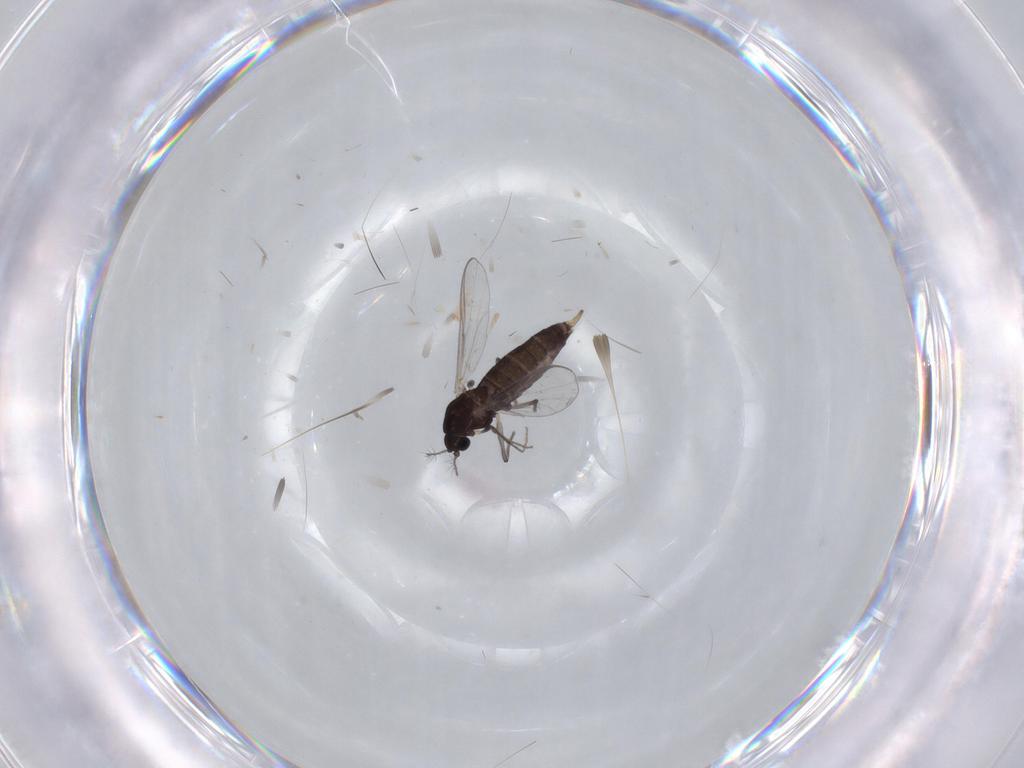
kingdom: Animalia
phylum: Arthropoda
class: Insecta
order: Diptera
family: Chironomidae
